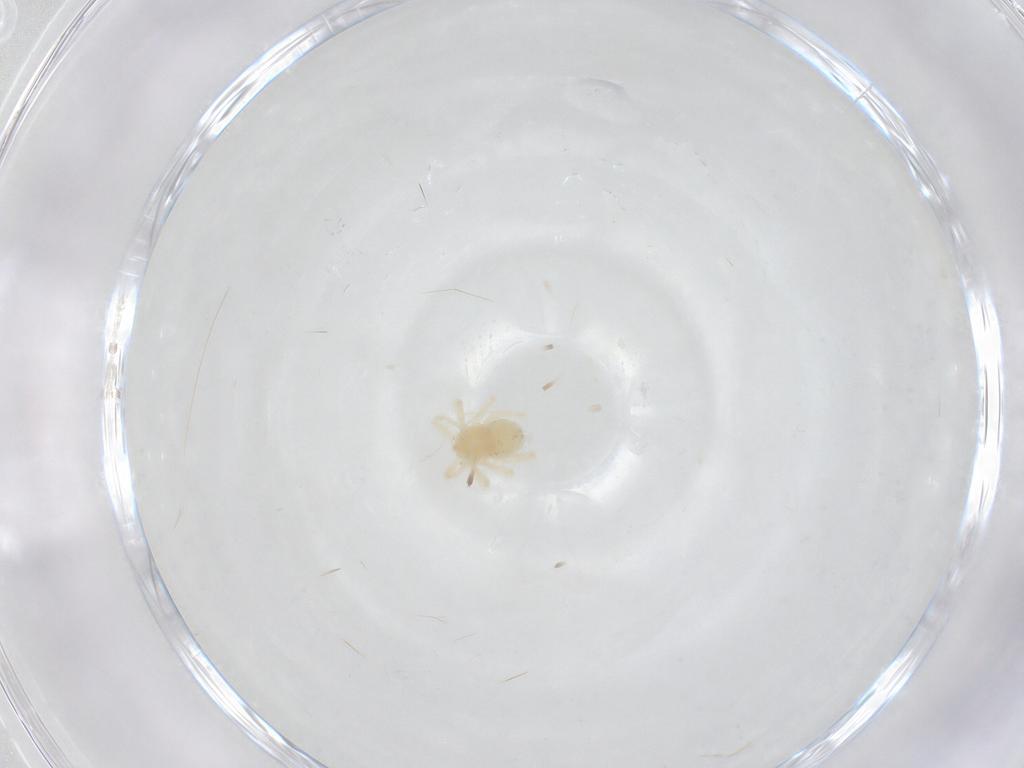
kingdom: Animalia
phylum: Arthropoda
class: Arachnida
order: Trombidiformes
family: Anystidae
